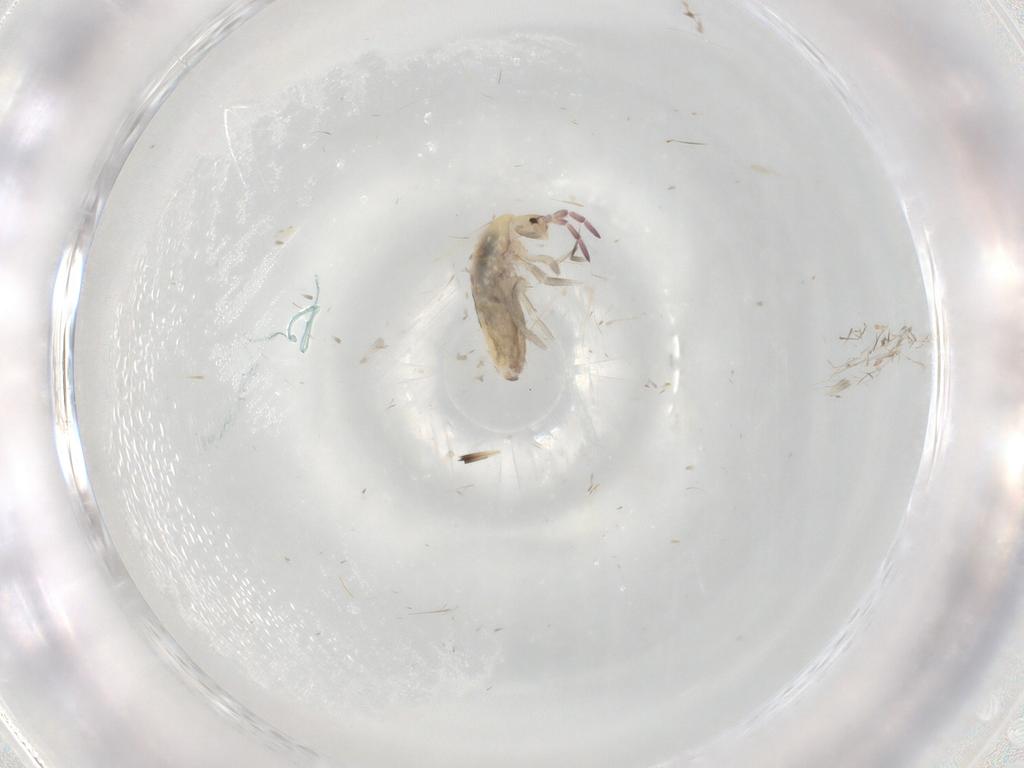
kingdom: Animalia
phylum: Arthropoda
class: Collembola
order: Entomobryomorpha
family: Entomobryidae
